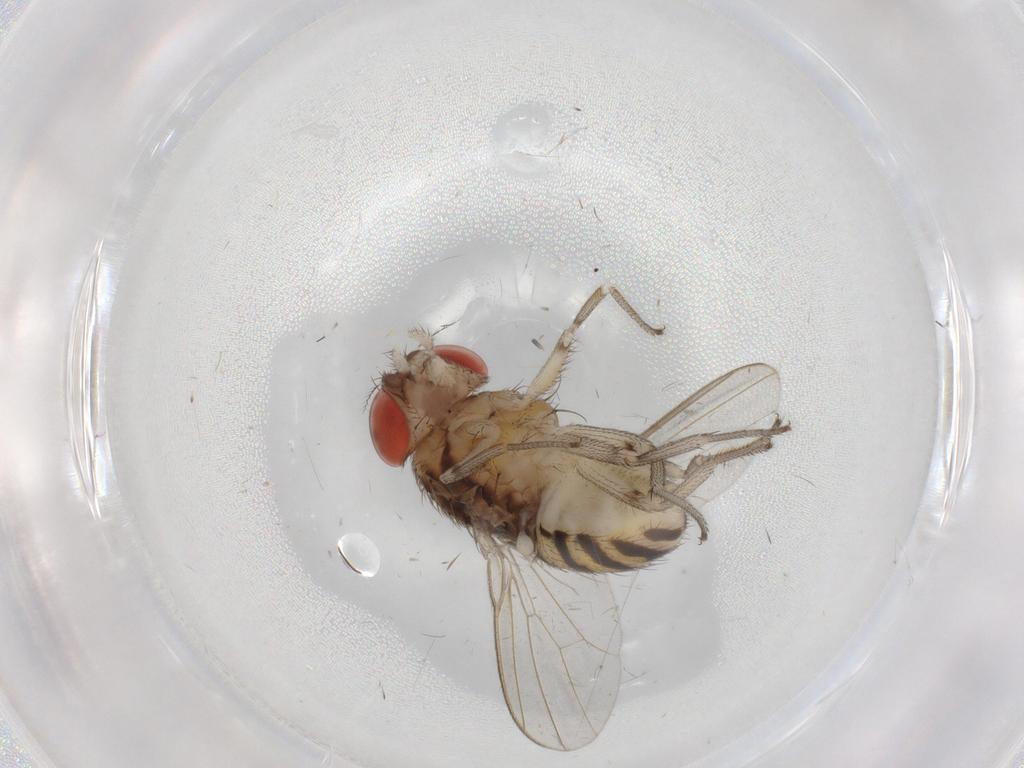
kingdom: Animalia
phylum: Arthropoda
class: Insecta
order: Diptera
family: Drosophilidae
